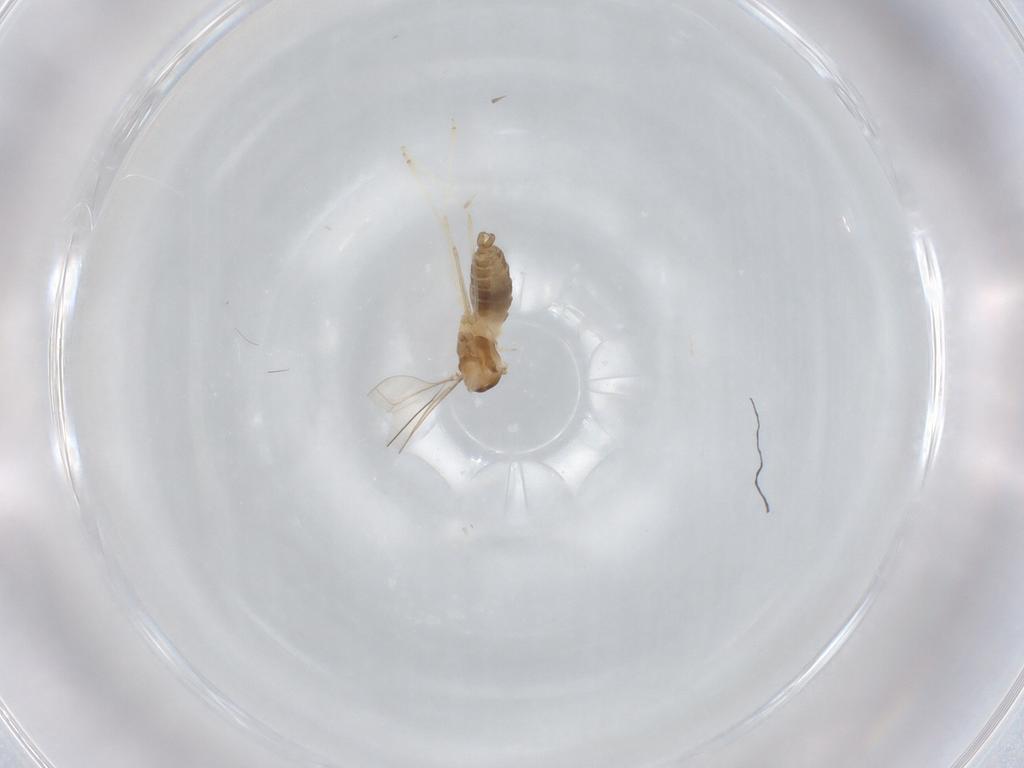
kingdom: Animalia
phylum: Arthropoda
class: Insecta
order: Diptera
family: Cecidomyiidae
